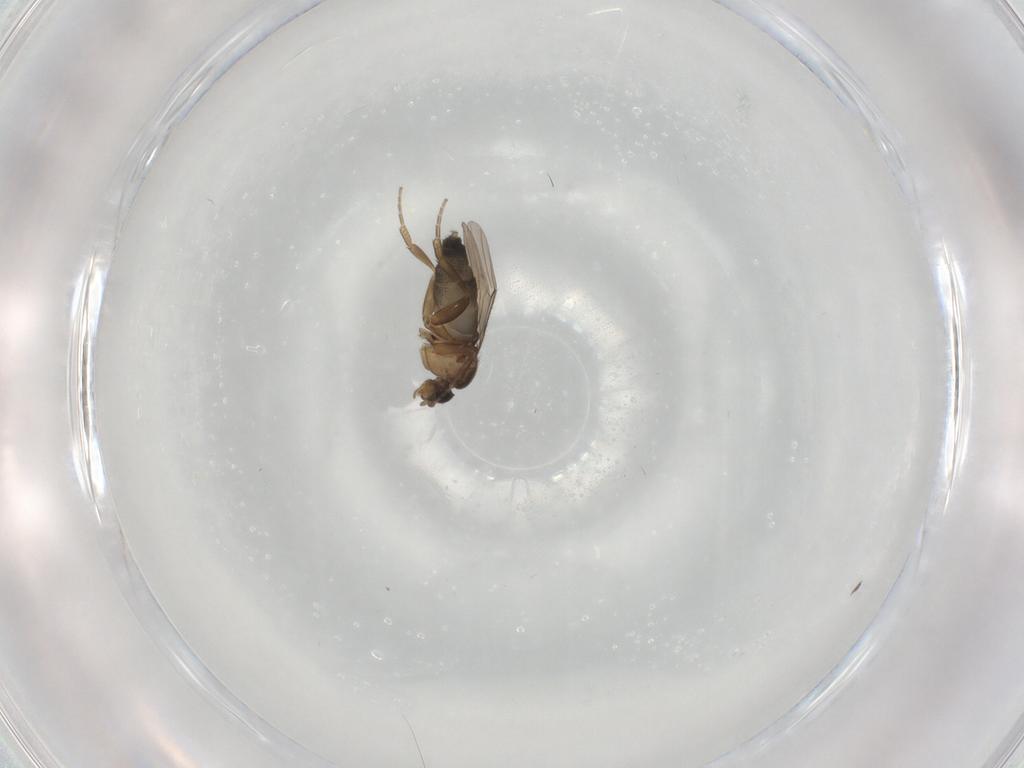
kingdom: Animalia
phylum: Arthropoda
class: Insecta
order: Diptera
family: Phoridae
